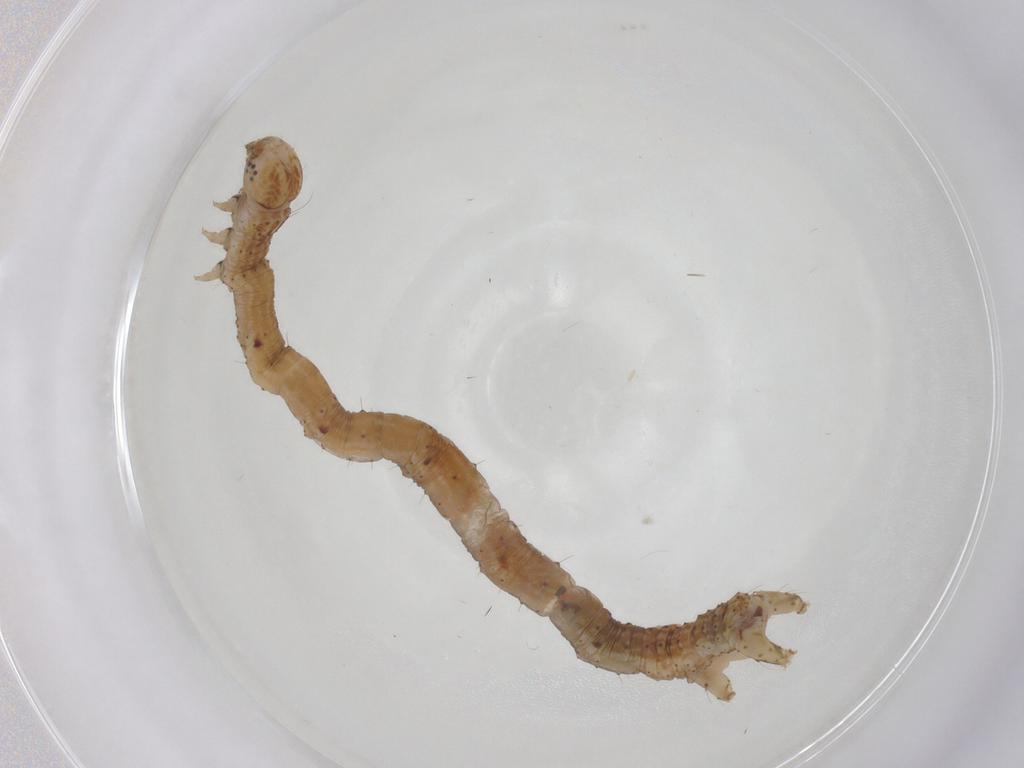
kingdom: Animalia
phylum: Arthropoda
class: Insecta
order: Lepidoptera
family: Geometridae
